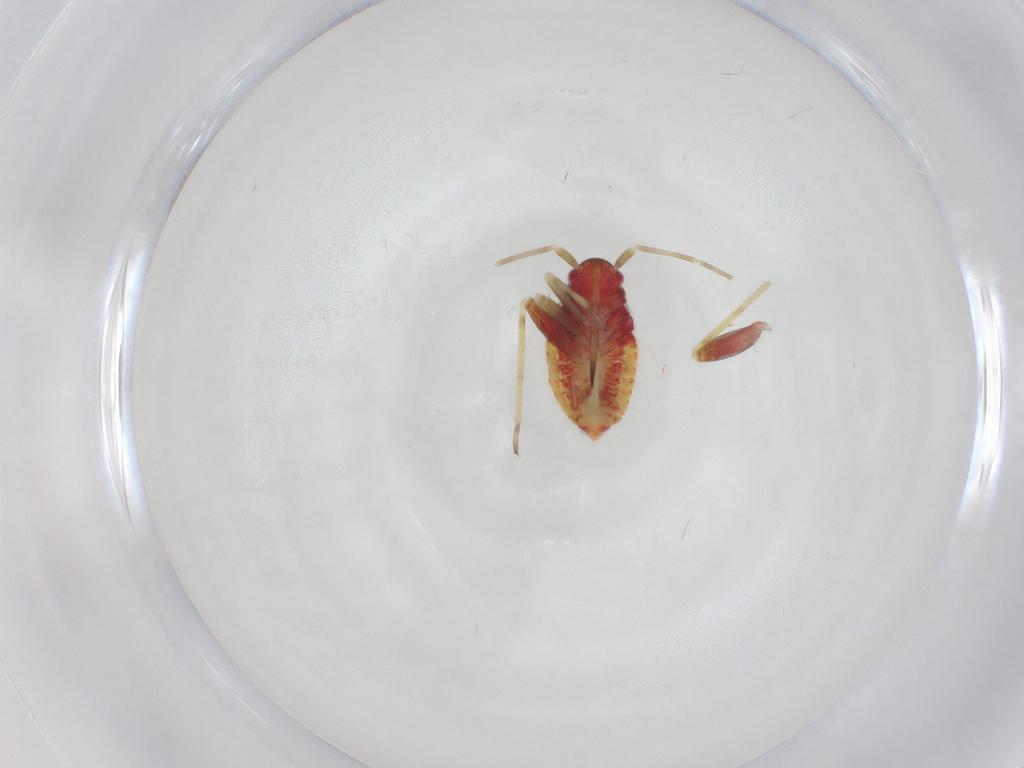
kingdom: Animalia
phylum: Arthropoda
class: Insecta
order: Hemiptera
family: Miridae
